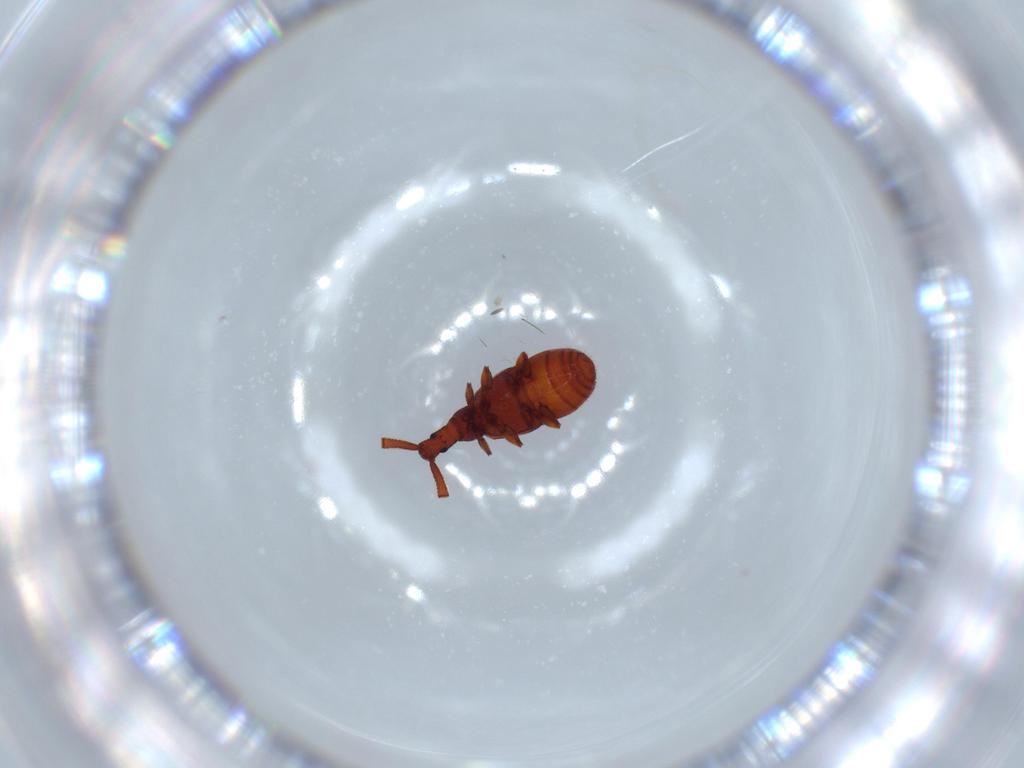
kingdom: Animalia
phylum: Arthropoda
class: Insecta
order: Coleoptera
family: Staphylinidae
